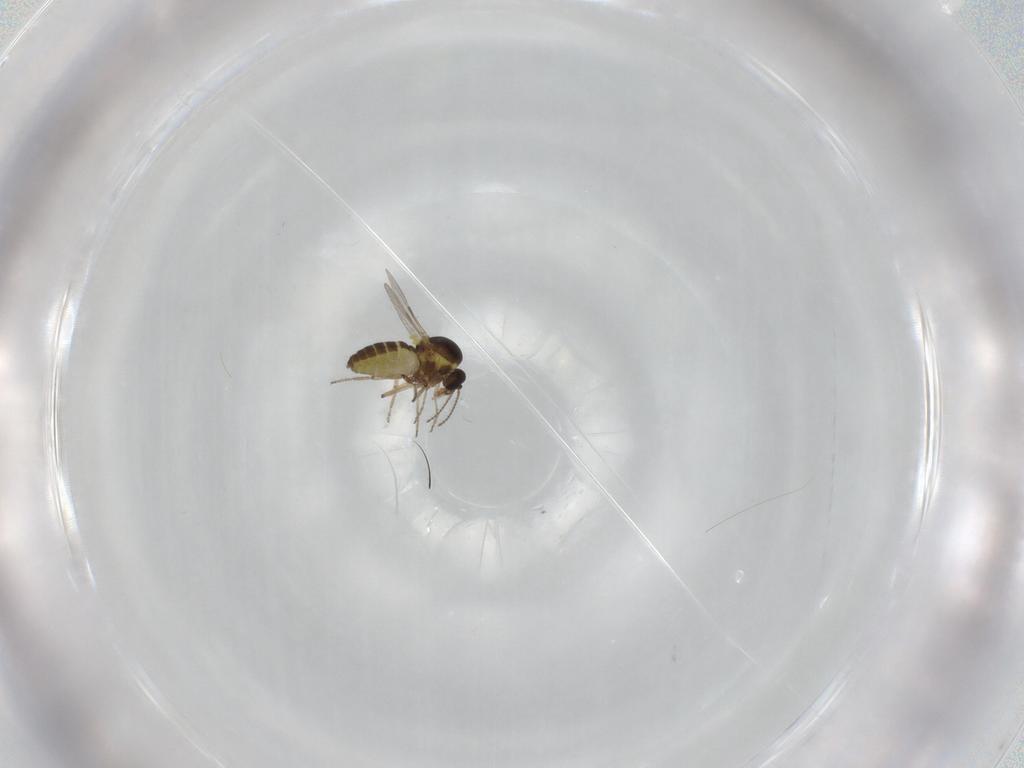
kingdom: Animalia
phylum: Arthropoda
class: Insecta
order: Diptera
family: Ceratopogonidae
